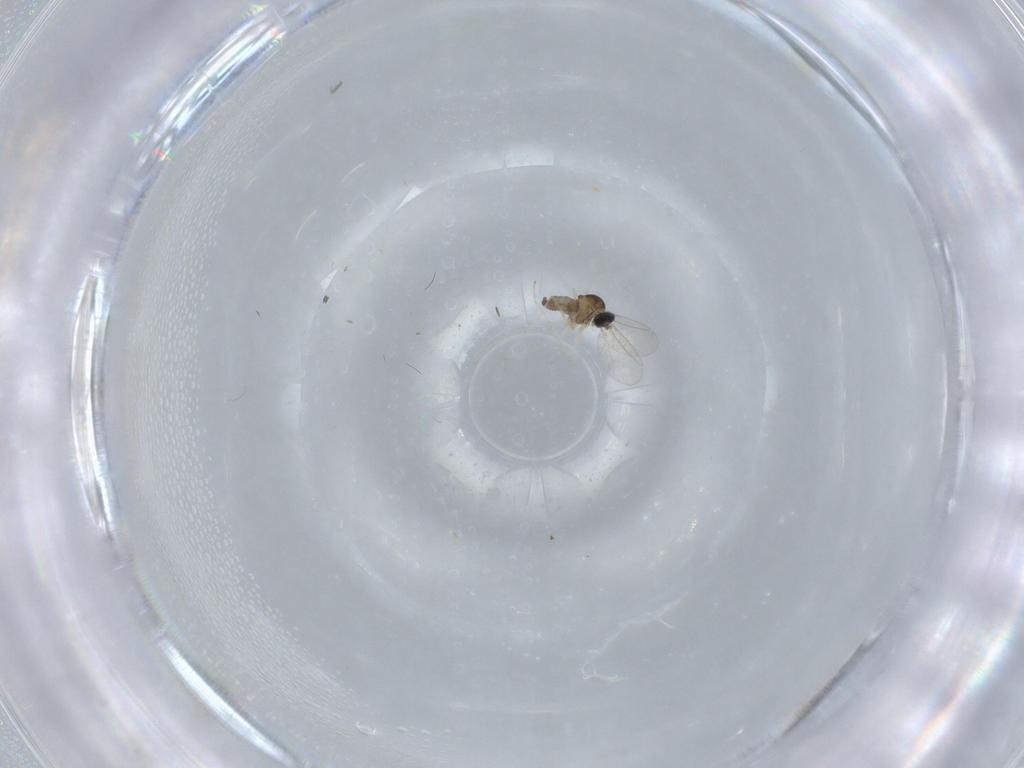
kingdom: Animalia
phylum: Arthropoda
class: Insecta
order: Diptera
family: Cecidomyiidae
